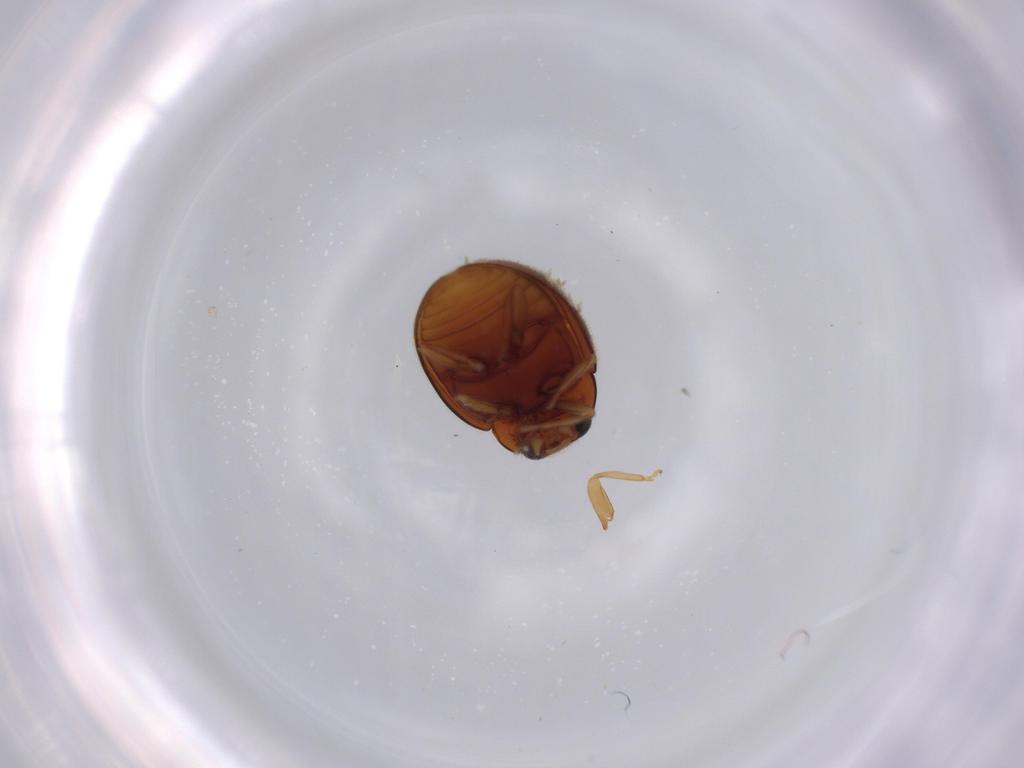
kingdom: Animalia
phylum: Arthropoda
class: Insecta
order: Coleoptera
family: Coccinellidae
